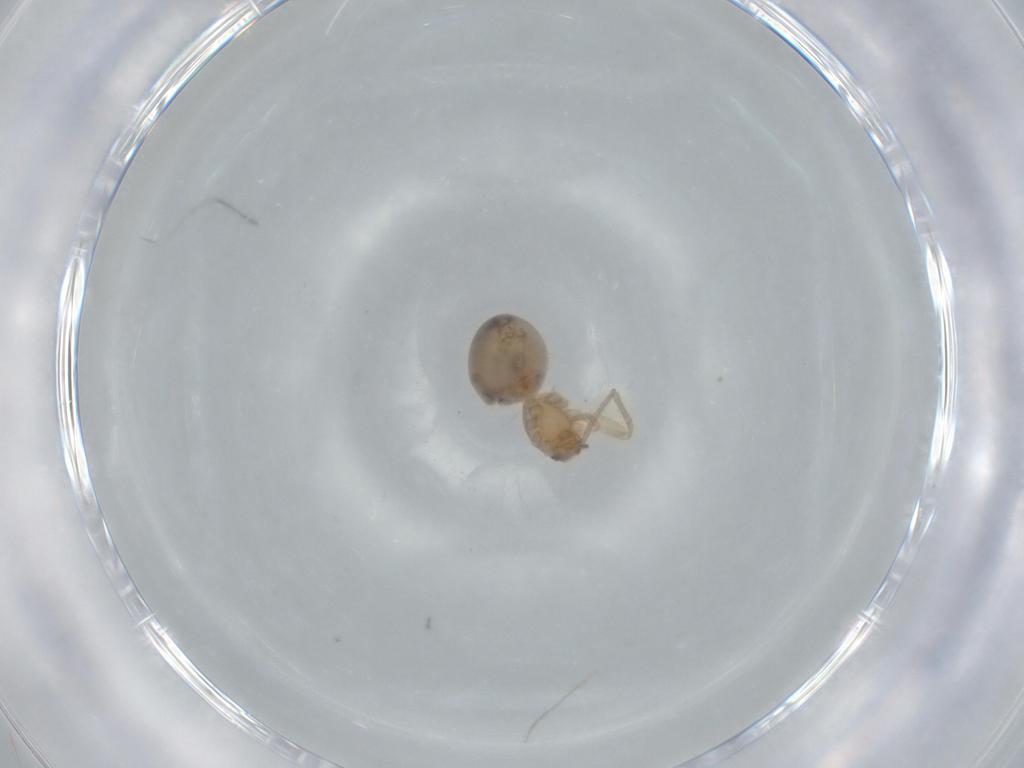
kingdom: Animalia
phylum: Arthropoda
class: Arachnida
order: Araneae
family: Oonopidae
